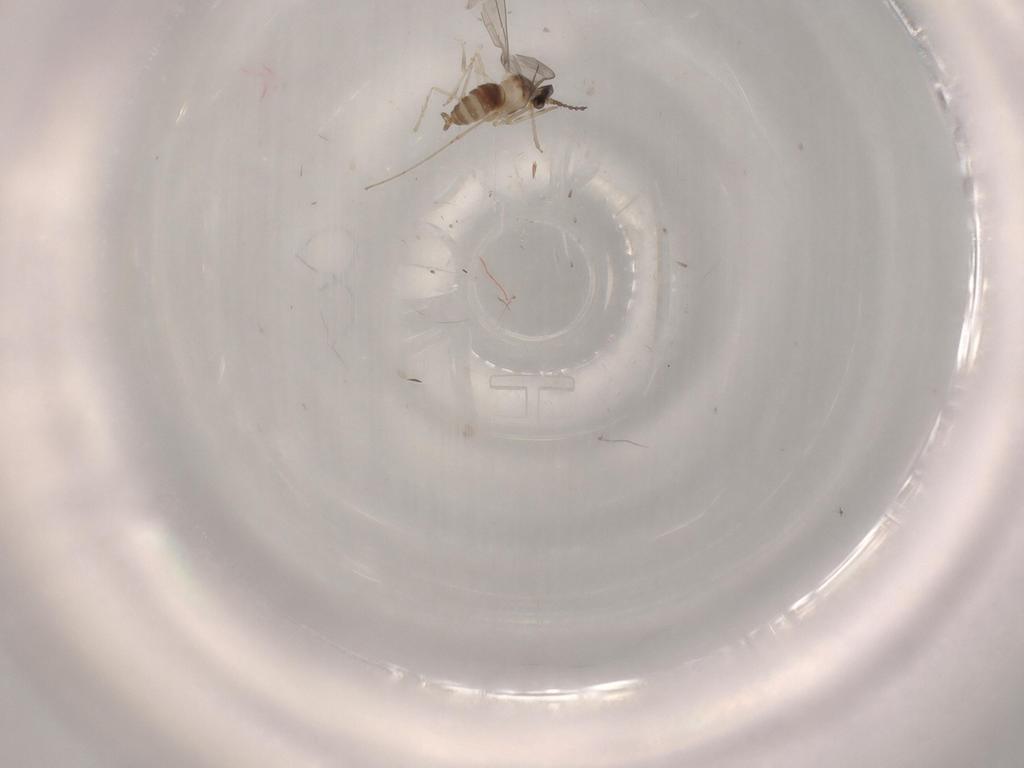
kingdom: Animalia
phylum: Arthropoda
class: Insecta
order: Diptera
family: Cecidomyiidae
